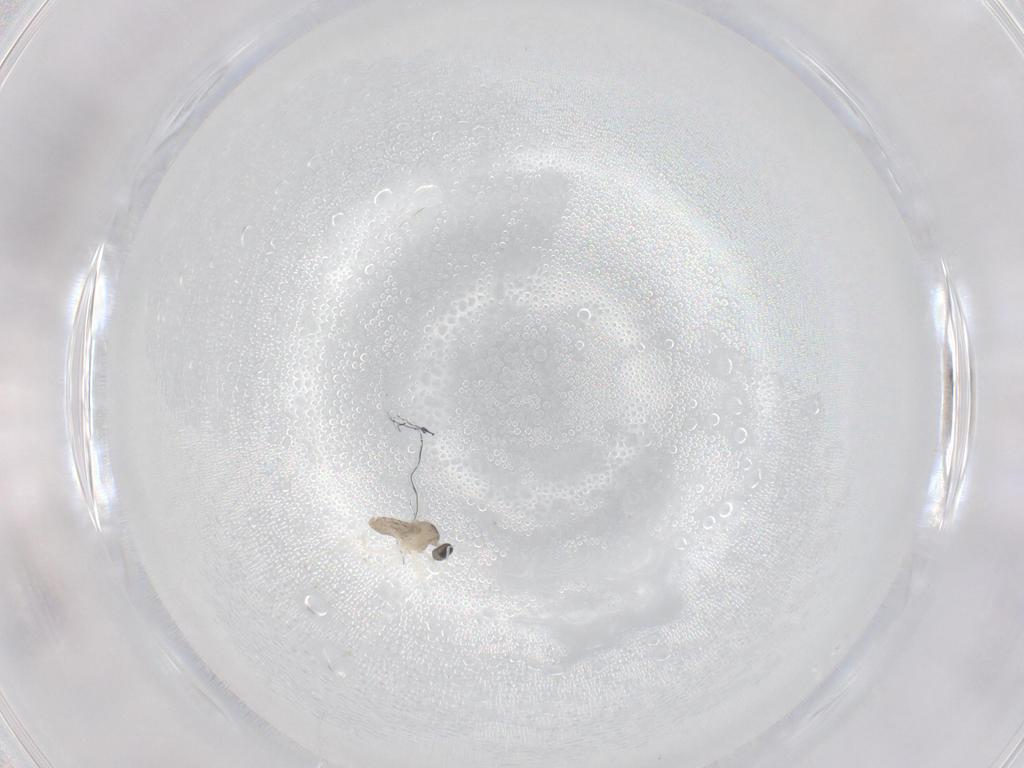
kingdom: Animalia
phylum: Arthropoda
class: Insecta
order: Diptera
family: Cecidomyiidae
